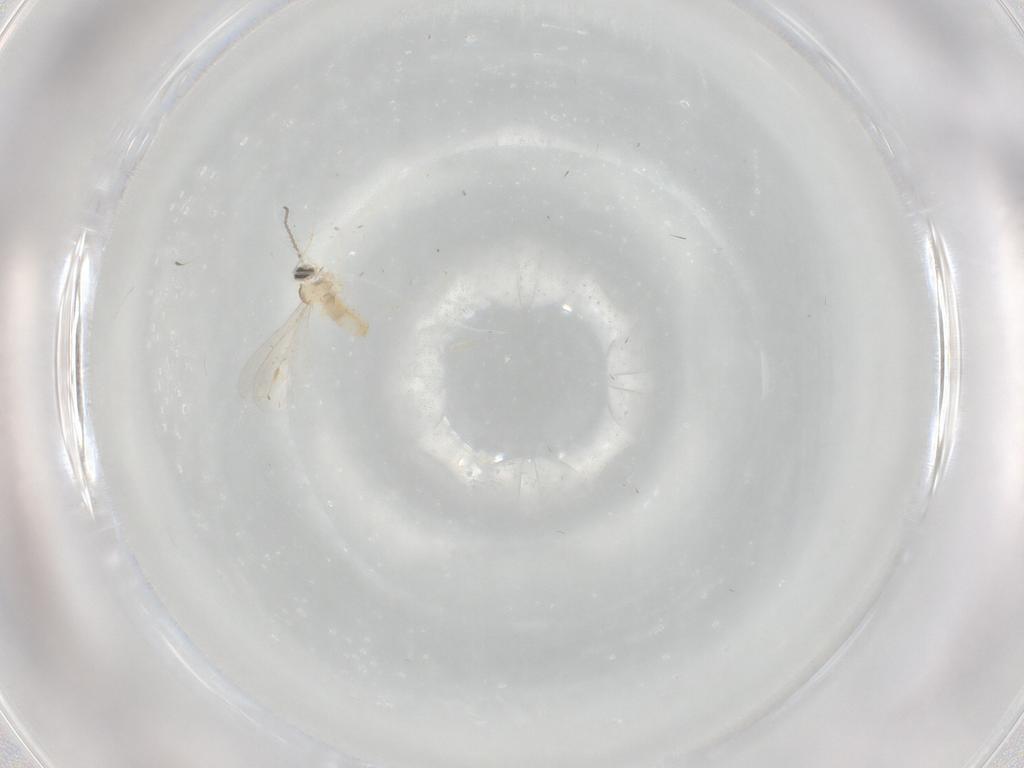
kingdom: Animalia
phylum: Arthropoda
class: Insecta
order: Diptera
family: Cecidomyiidae
